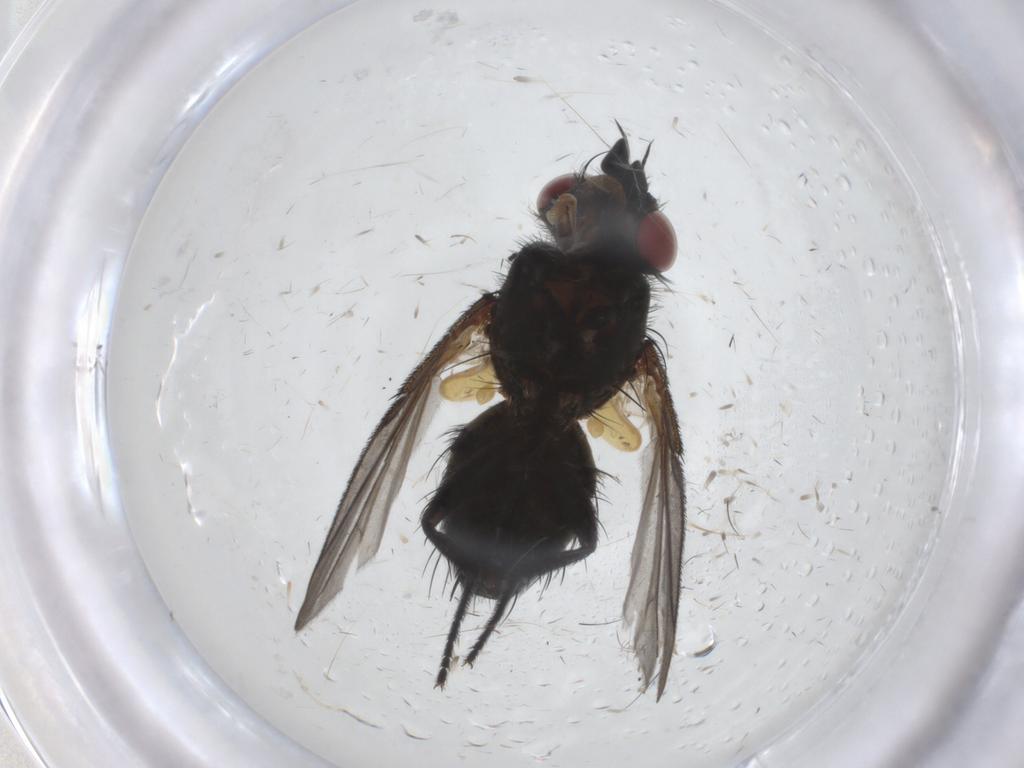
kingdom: Animalia
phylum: Arthropoda
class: Insecta
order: Diptera
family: Tachinidae
